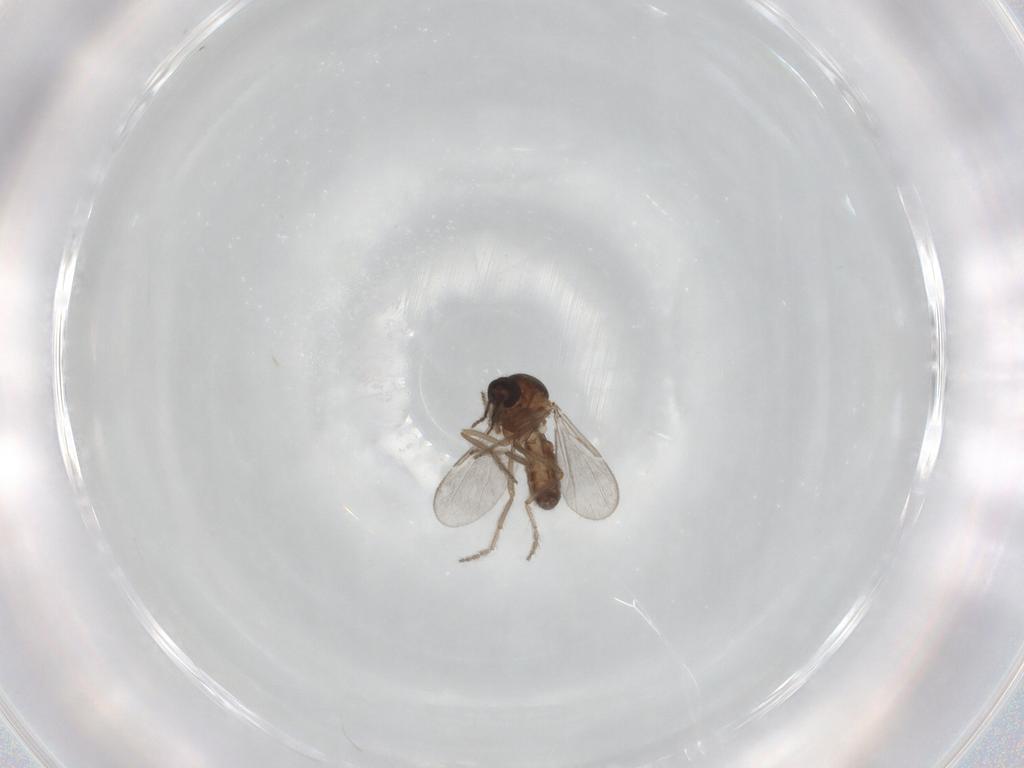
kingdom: Animalia
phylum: Arthropoda
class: Insecta
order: Diptera
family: Ceratopogonidae
